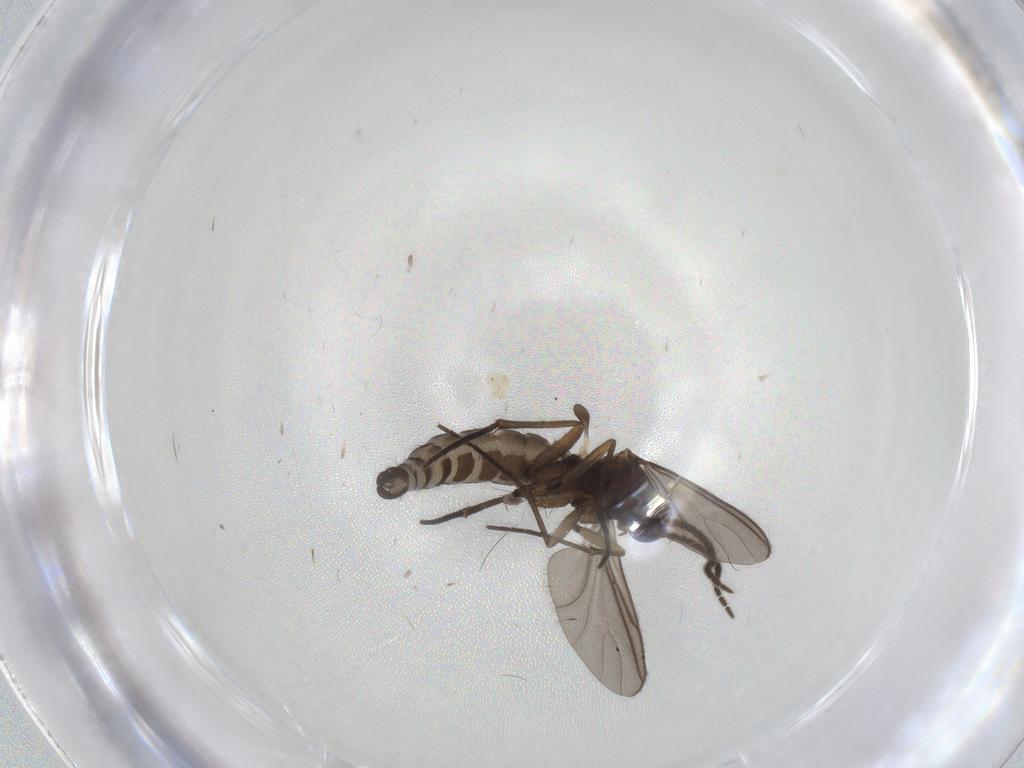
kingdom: Animalia
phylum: Arthropoda
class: Insecta
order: Diptera
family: Sciaridae
